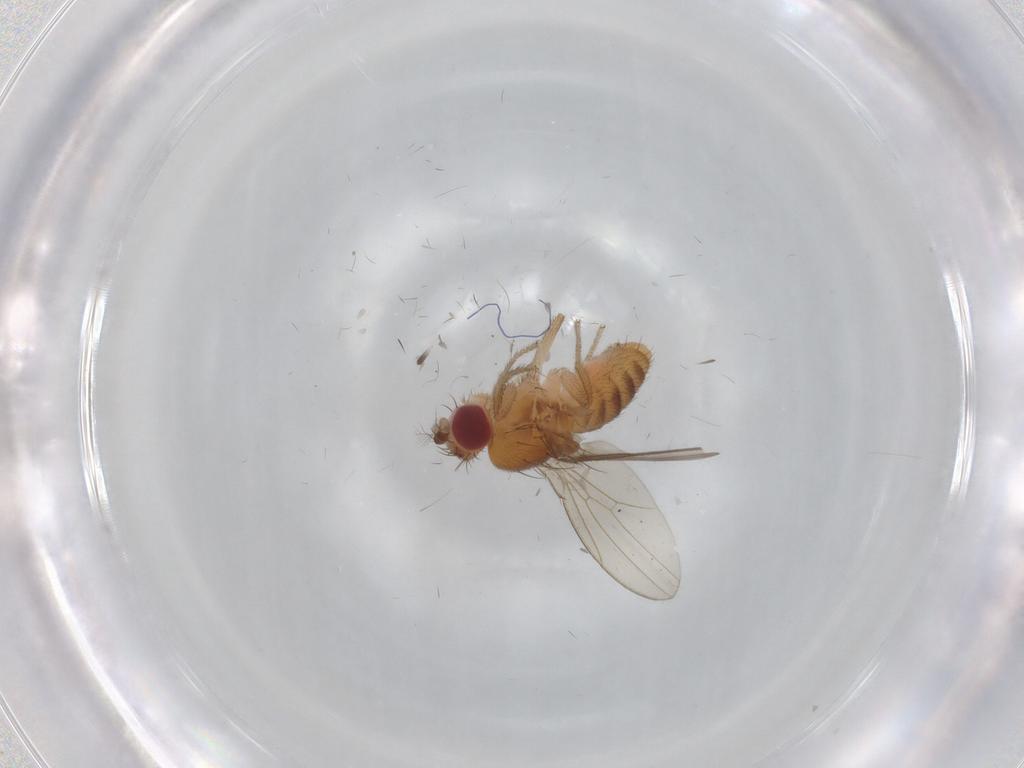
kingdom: Animalia
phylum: Arthropoda
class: Insecta
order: Diptera
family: Drosophilidae
